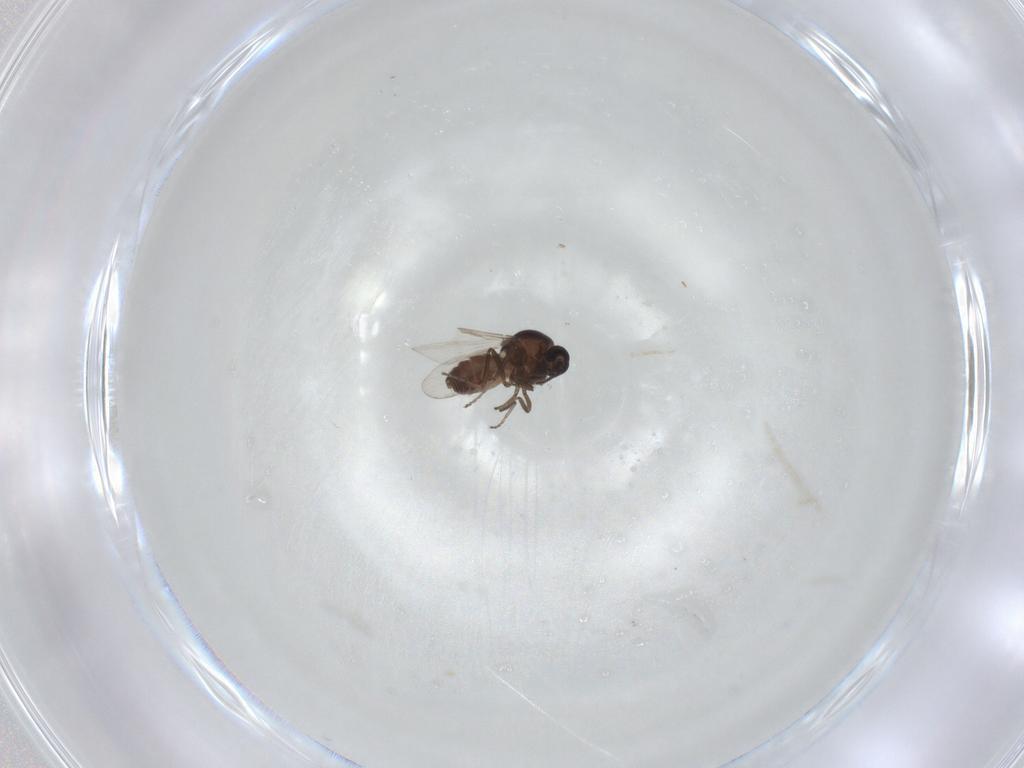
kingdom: Animalia
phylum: Arthropoda
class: Insecta
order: Diptera
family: Ceratopogonidae
